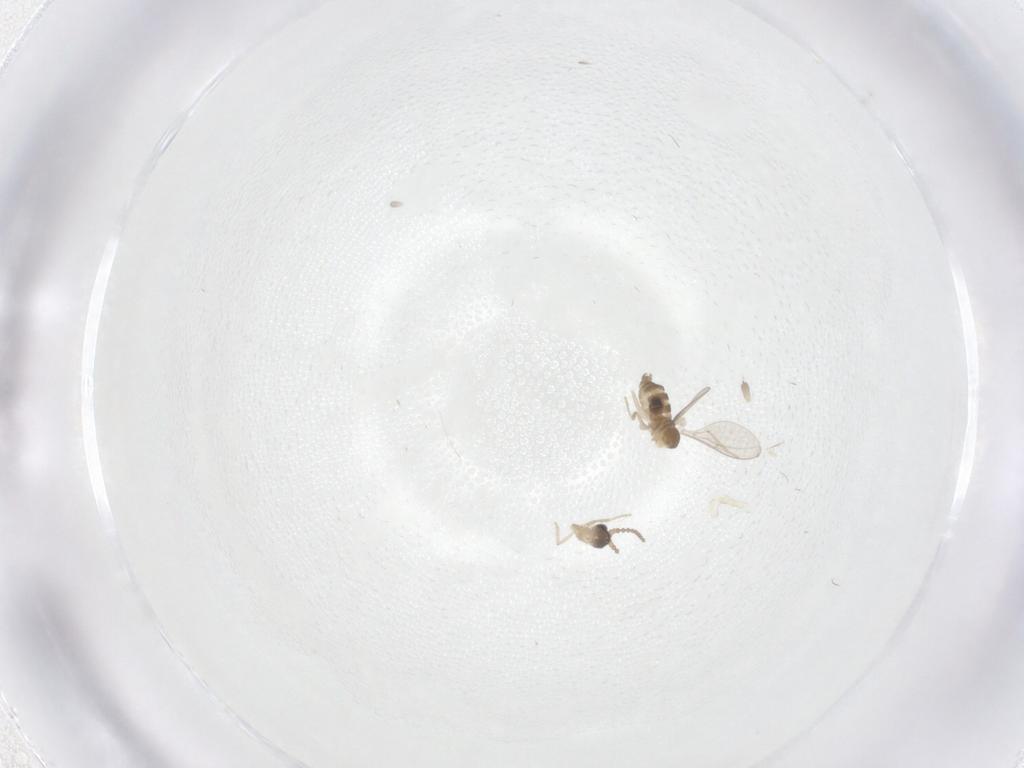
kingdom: Animalia
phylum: Arthropoda
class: Insecta
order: Diptera
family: Cecidomyiidae
